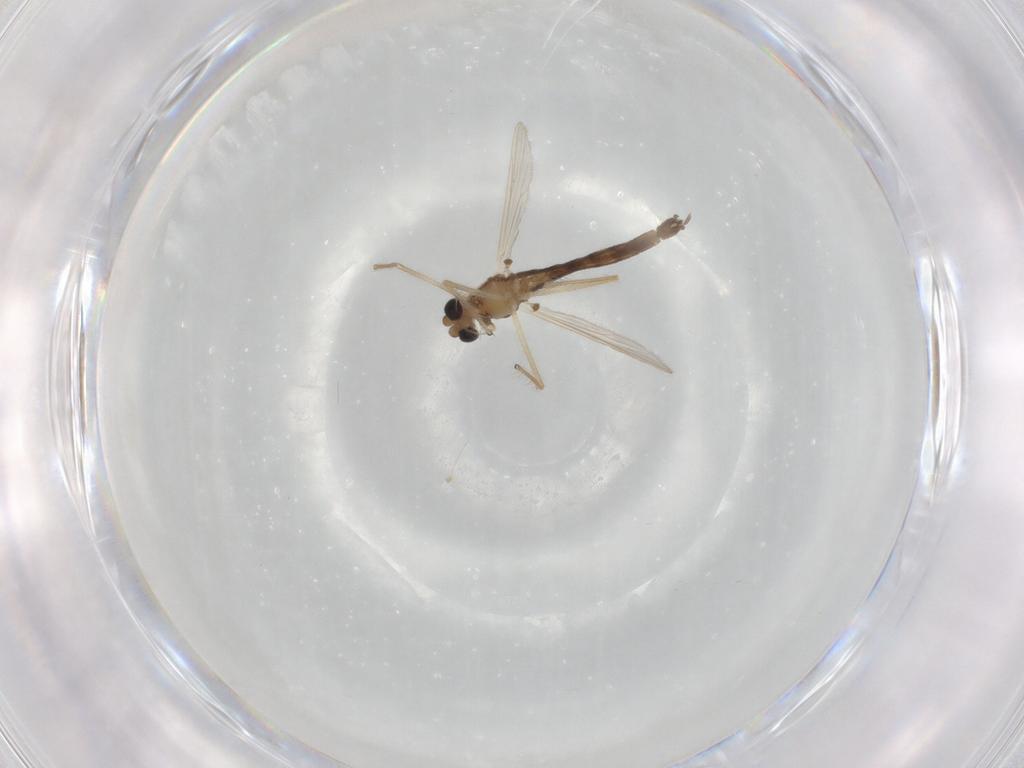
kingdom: Animalia
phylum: Arthropoda
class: Insecta
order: Diptera
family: Chironomidae
